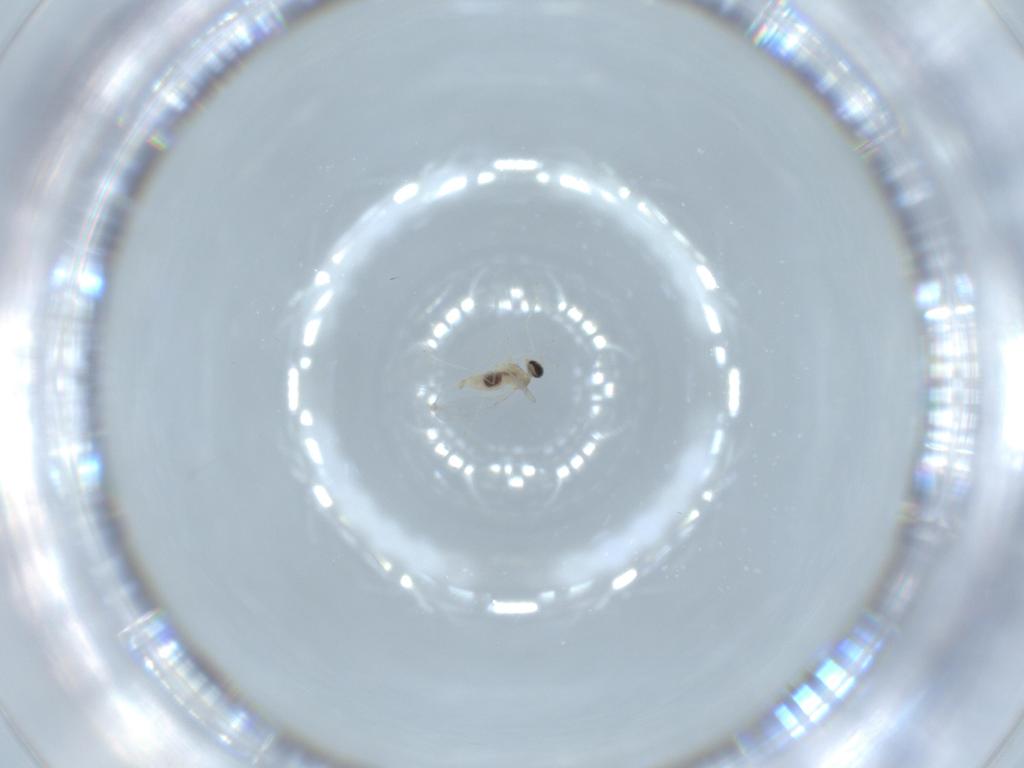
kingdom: Animalia
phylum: Arthropoda
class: Insecta
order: Diptera
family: Cecidomyiidae
